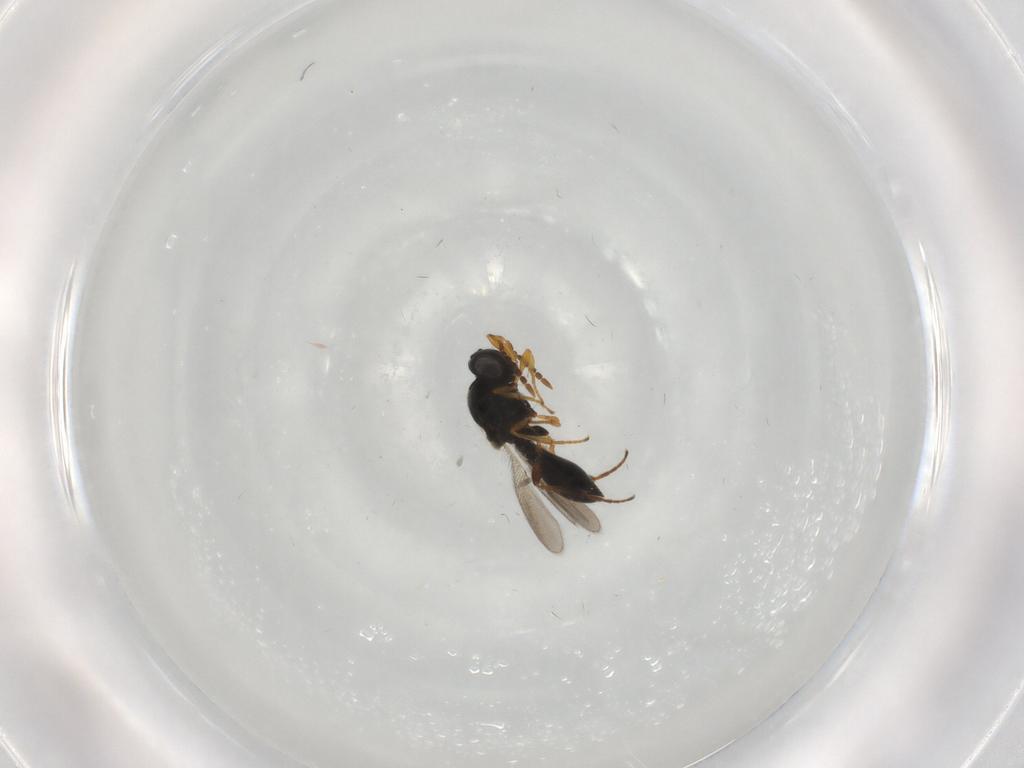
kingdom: Animalia
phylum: Arthropoda
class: Insecta
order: Hymenoptera
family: Platygastridae
